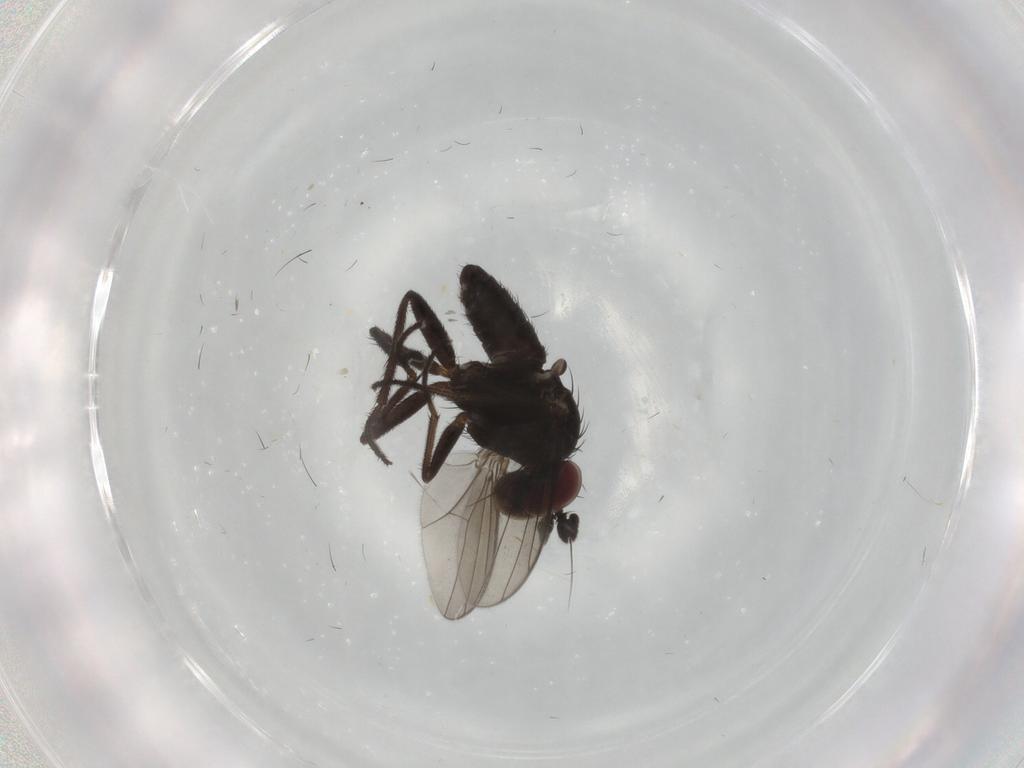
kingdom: Animalia
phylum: Arthropoda
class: Insecta
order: Diptera
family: Dolichopodidae
